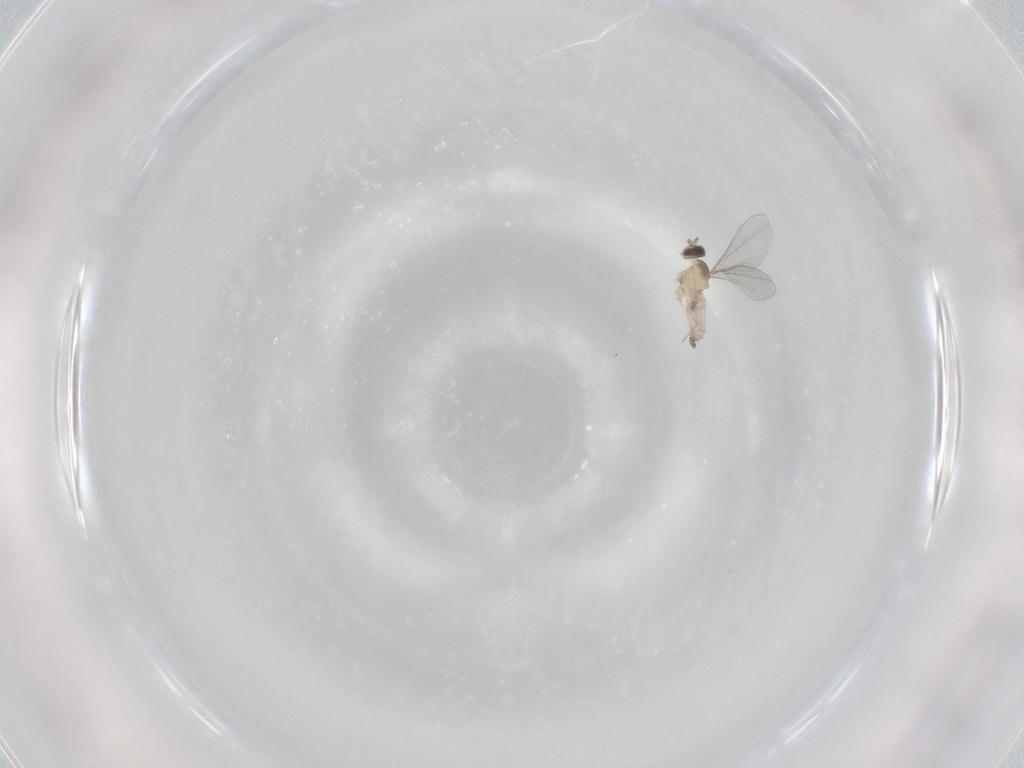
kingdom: Animalia
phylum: Arthropoda
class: Insecta
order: Diptera
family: Cecidomyiidae
